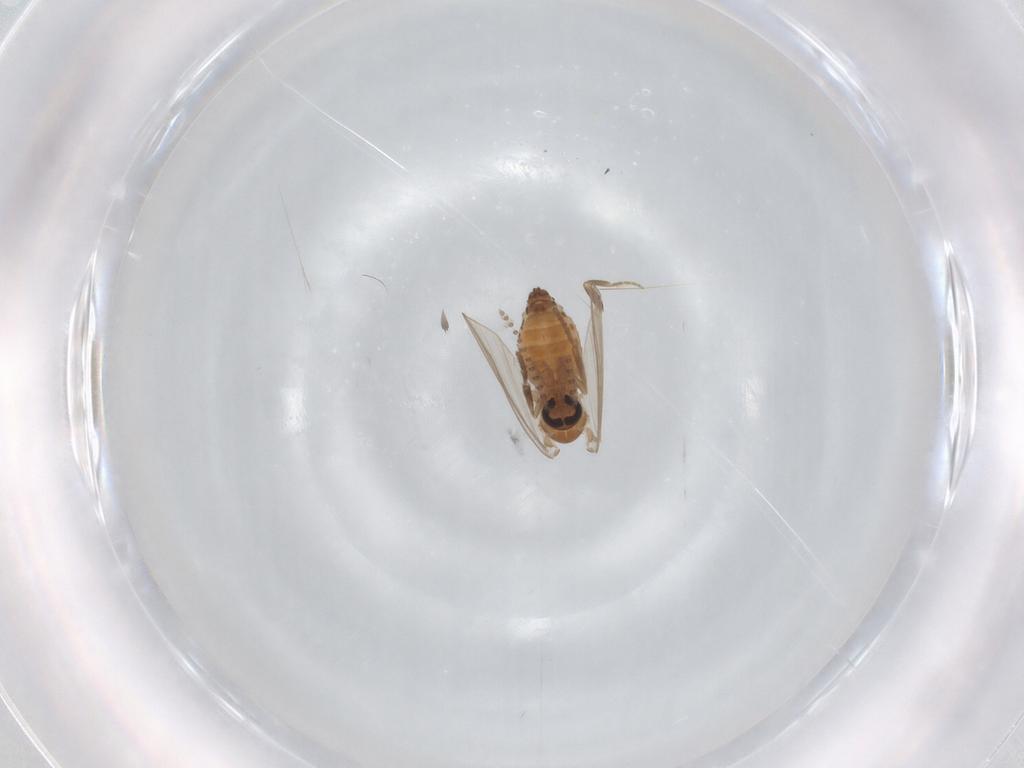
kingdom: Animalia
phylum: Arthropoda
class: Insecta
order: Diptera
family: Psychodidae
